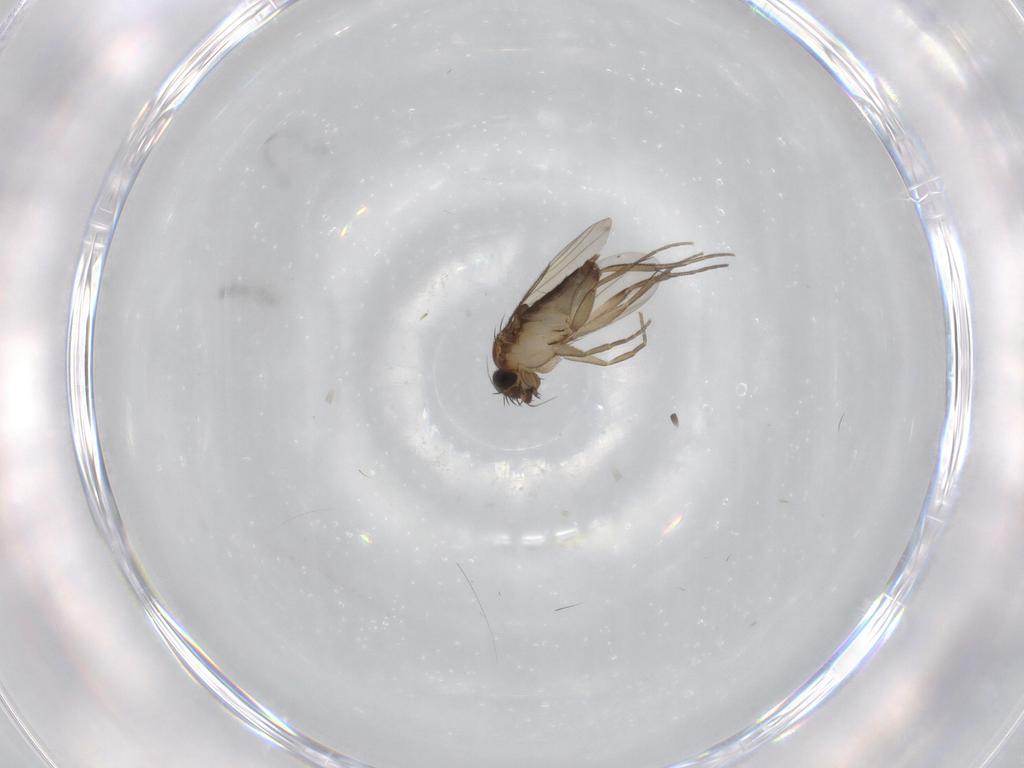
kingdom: Animalia
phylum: Arthropoda
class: Insecta
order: Diptera
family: Phoridae
